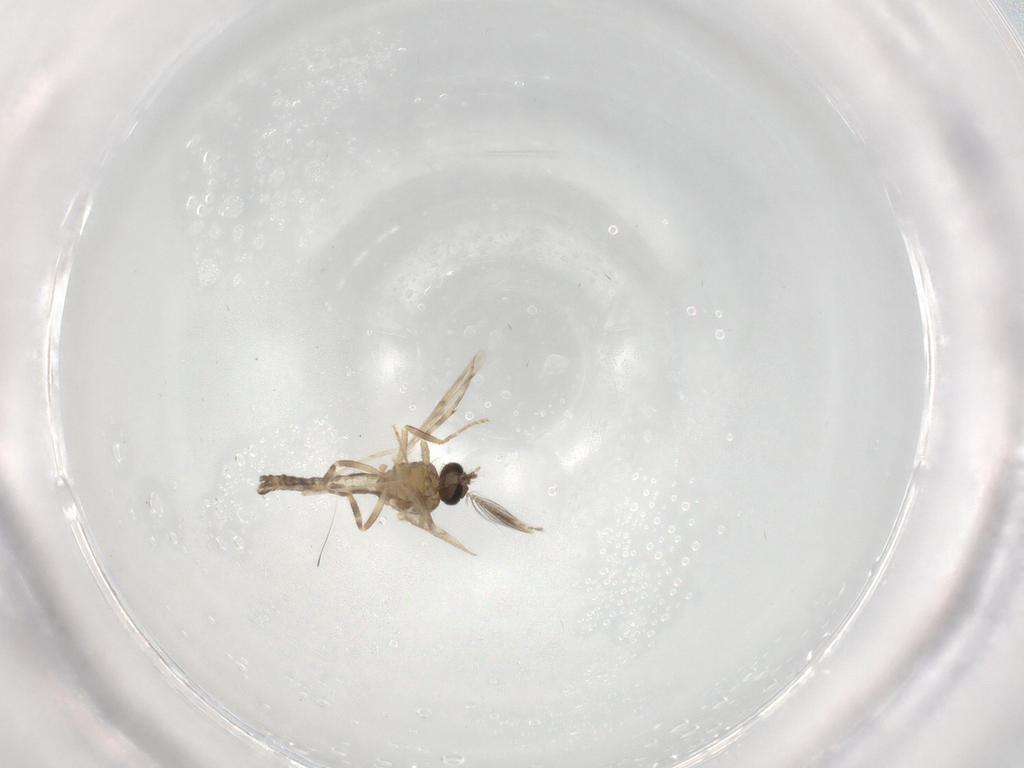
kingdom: Animalia
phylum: Arthropoda
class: Insecta
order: Diptera
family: Ceratopogonidae
